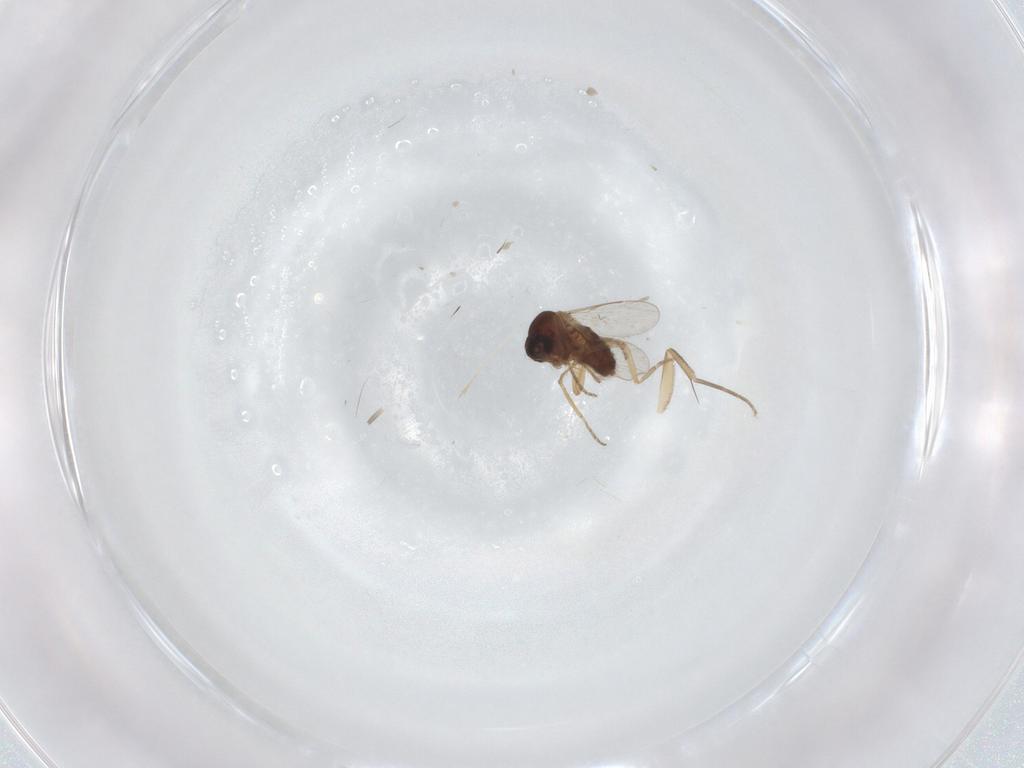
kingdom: Animalia
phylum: Arthropoda
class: Insecta
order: Diptera
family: Ceratopogonidae
